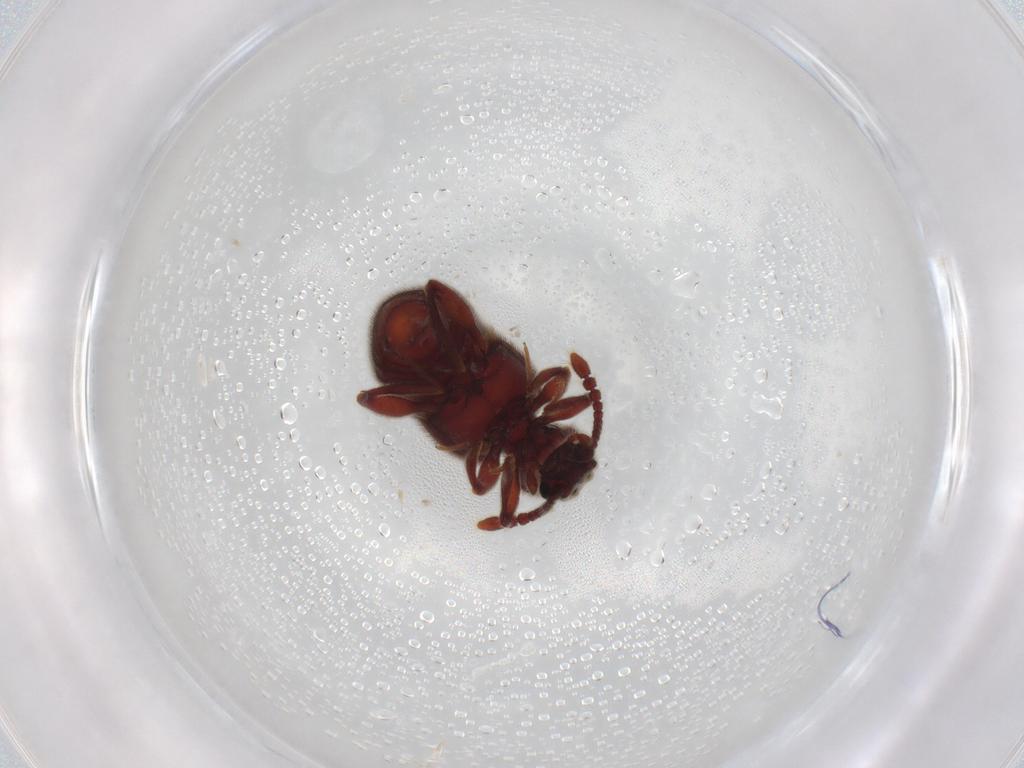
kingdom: Animalia
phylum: Arthropoda
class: Insecta
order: Coleoptera
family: Staphylinidae
